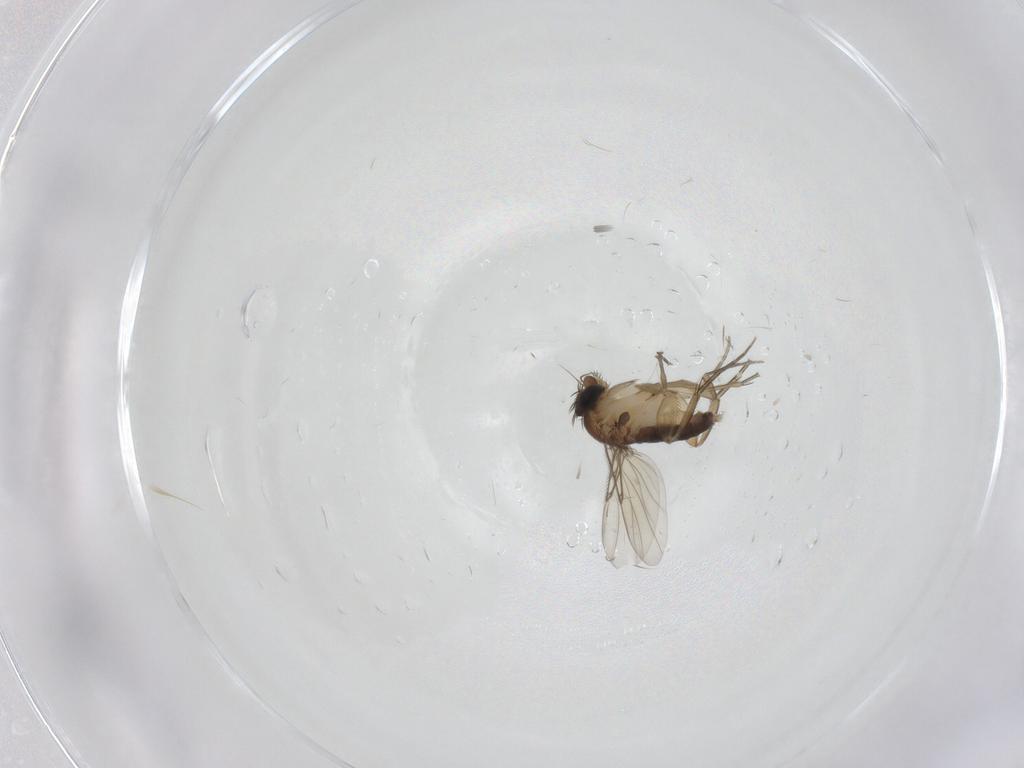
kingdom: Animalia
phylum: Arthropoda
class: Insecta
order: Diptera
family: Phoridae
